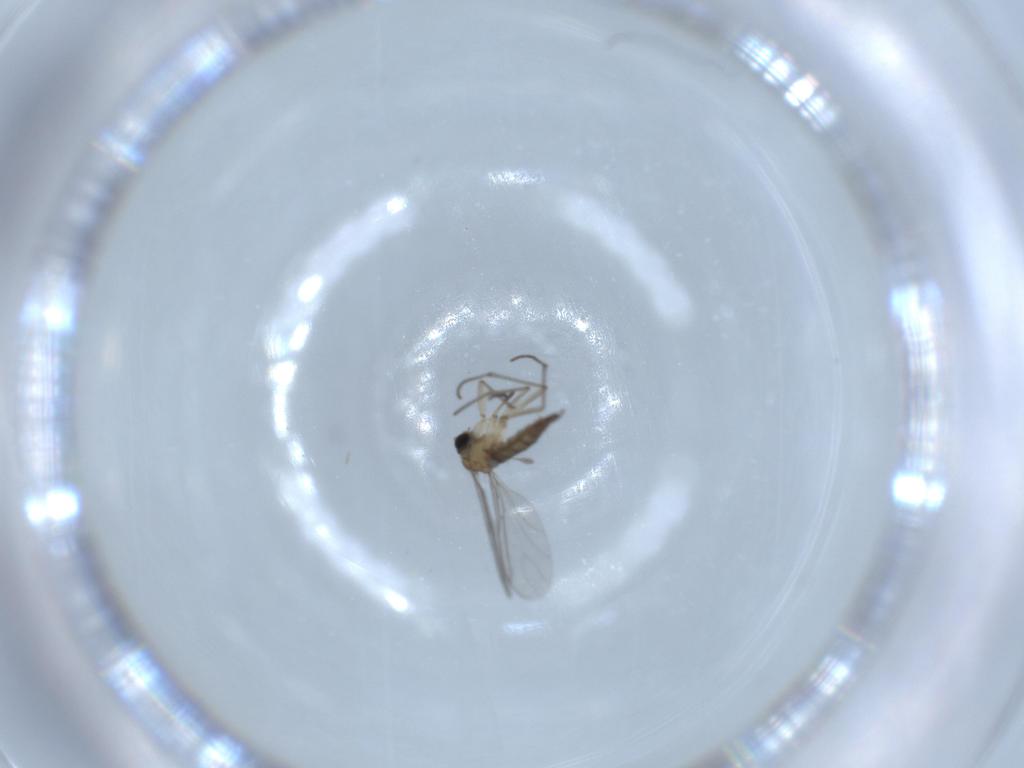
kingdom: Animalia
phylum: Arthropoda
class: Insecta
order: Diptera
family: Sciaridae
